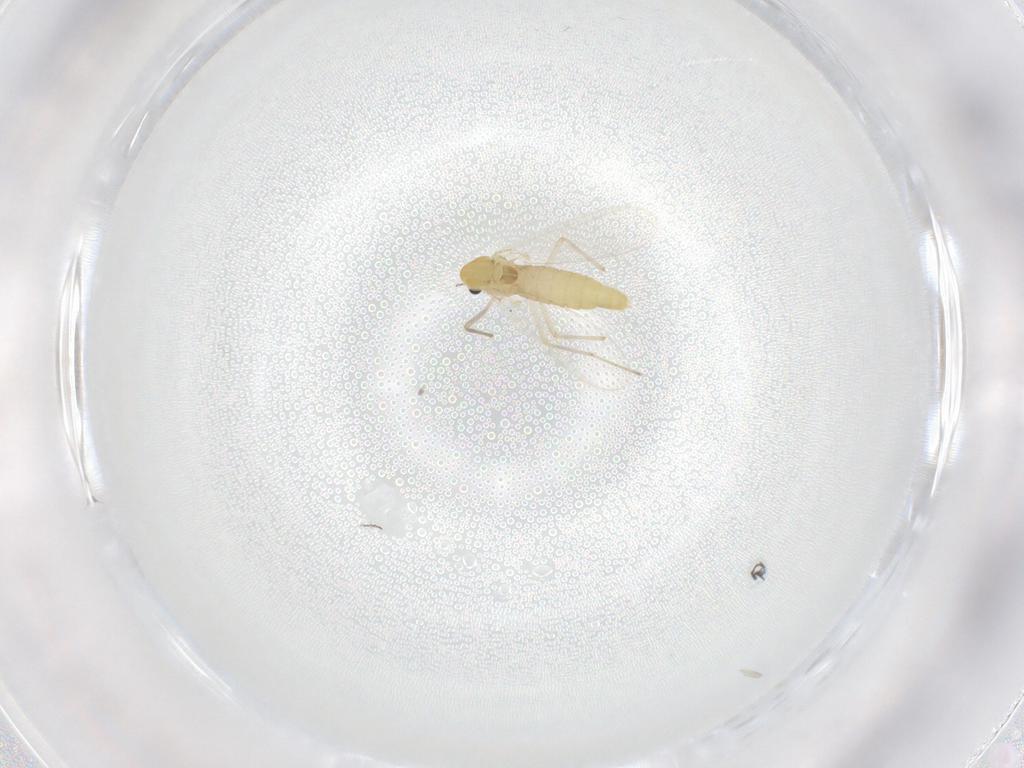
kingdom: Animalia
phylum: Arthropoda
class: Insecta
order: Diptera
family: Chironomidae
